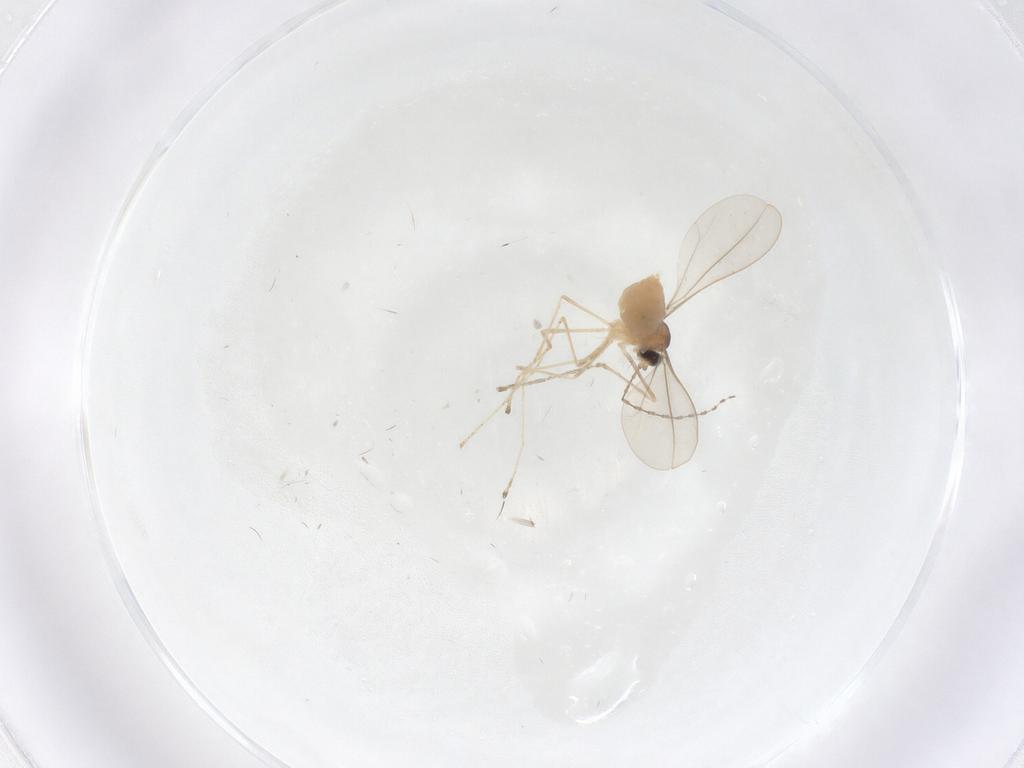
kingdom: Animalia
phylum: Arthropoda
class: Insecta
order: Diptera
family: Cecidomyiidae
